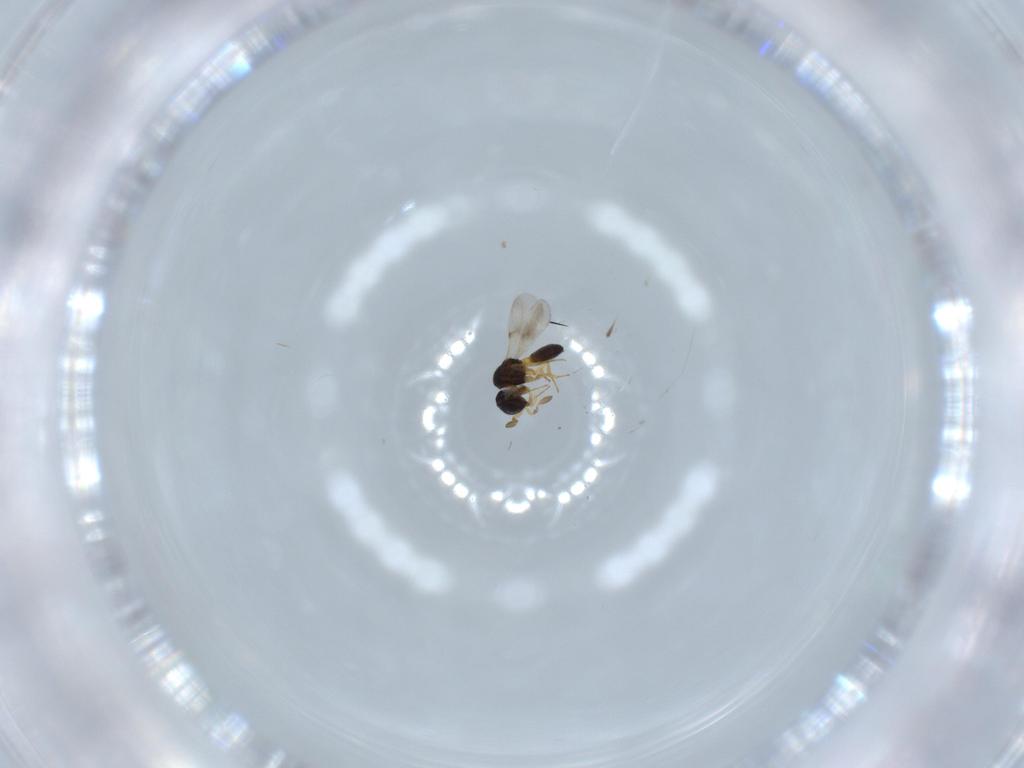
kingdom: Animalia
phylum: Arthropoda
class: Insecta
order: Hymenoptera
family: Scelionidae
